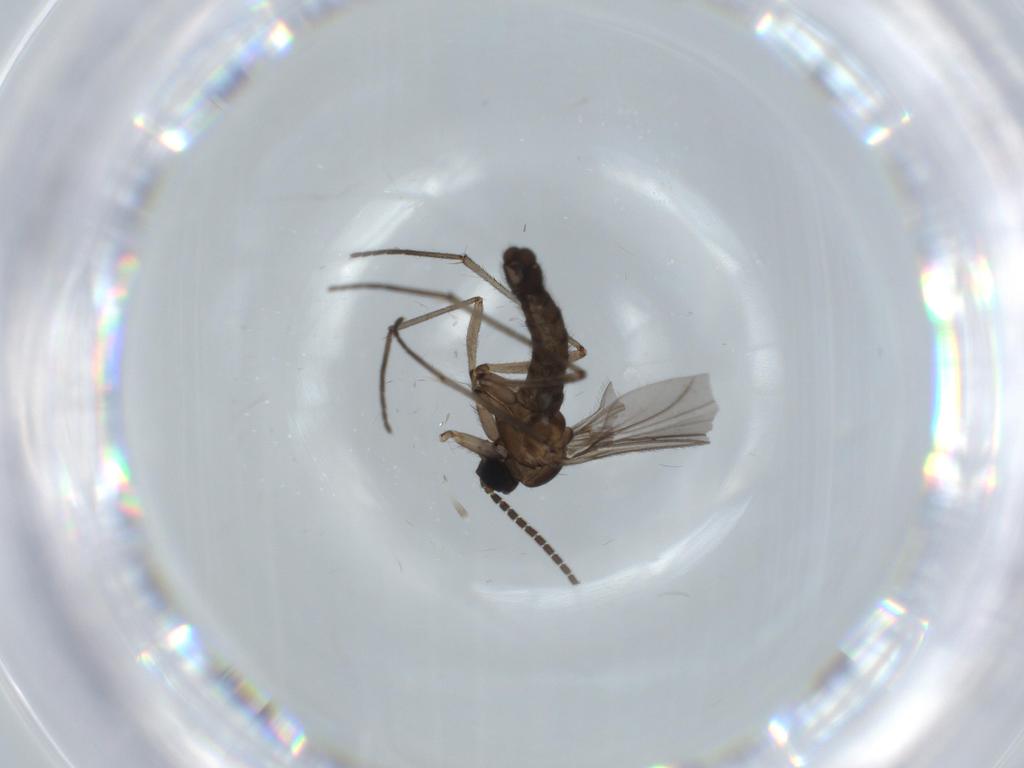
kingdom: Animalia
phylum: Arthropoda
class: Insecta
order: Diptera
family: Sciaridae
